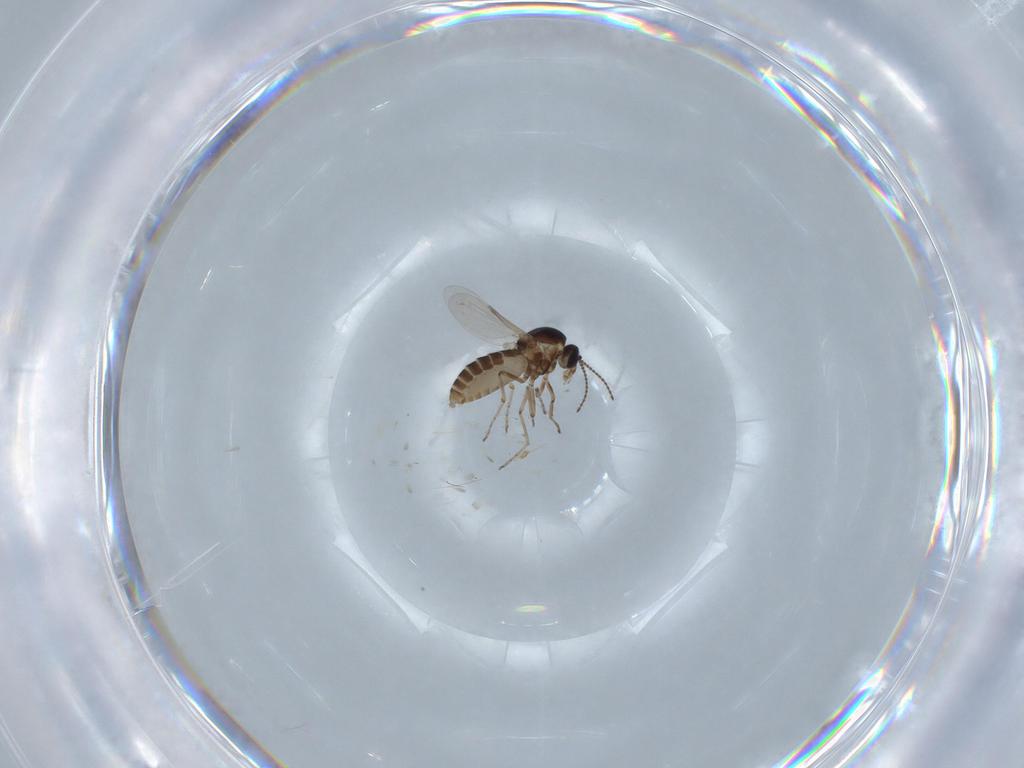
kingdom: Animalia
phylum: Arthropoda
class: Insecta
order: Diptera
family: Ceratopogonidae
